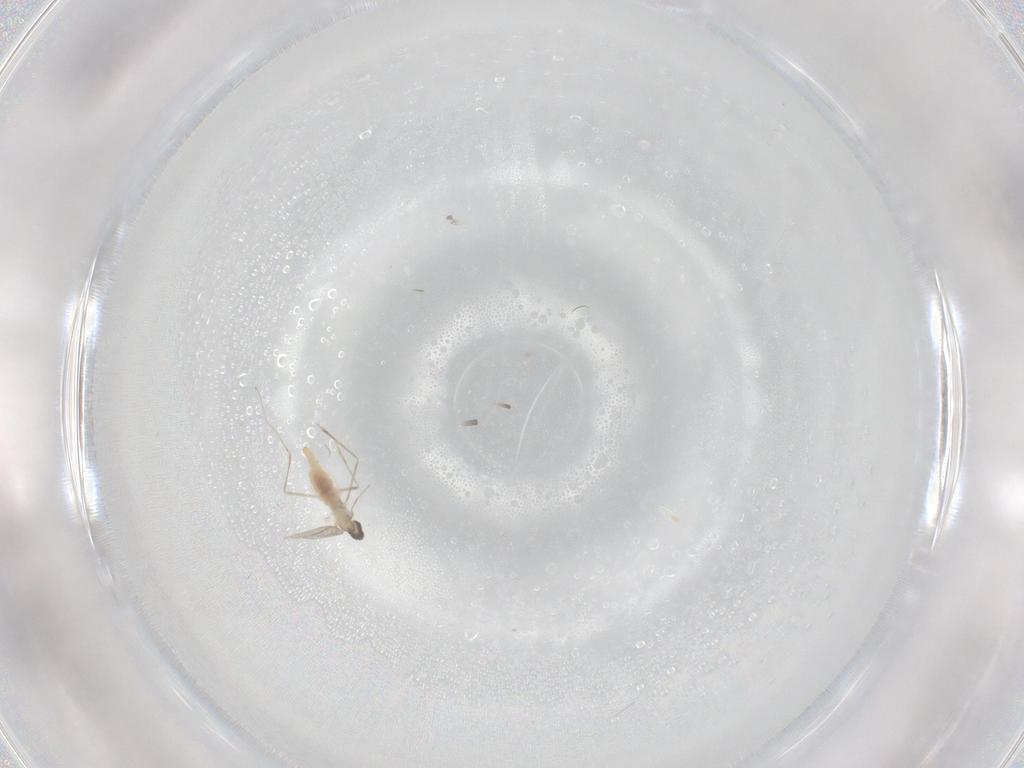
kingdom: Animalia
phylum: Arthropoda
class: Insecta
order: Diptera
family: Cecidomyiidae
